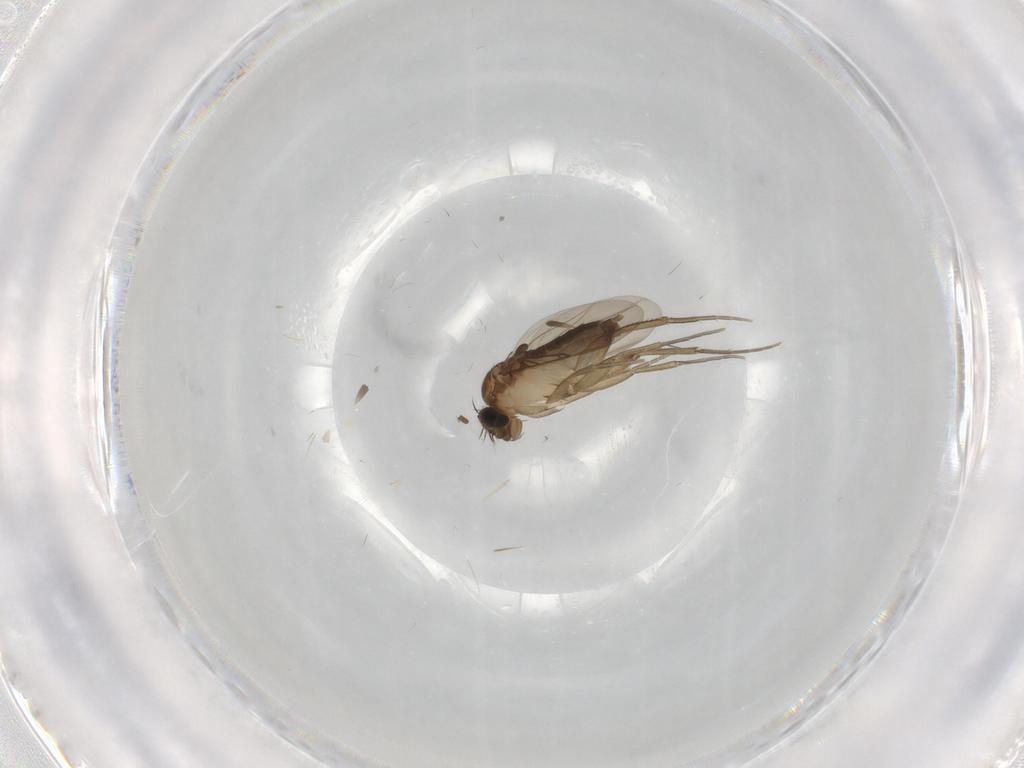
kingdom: Animalia
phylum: Arthropoda
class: Insecta
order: Diptera
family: Phoridae
